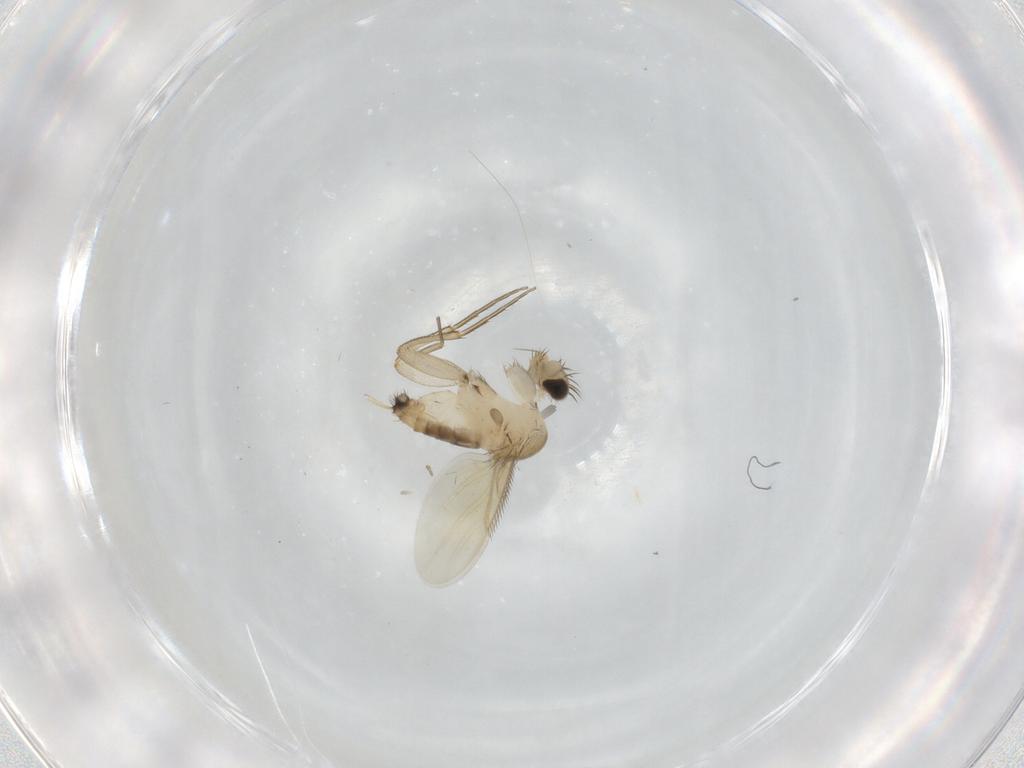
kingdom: Animalia
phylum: Arthropoda
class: Insecta
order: Diptera
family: Phoridae
